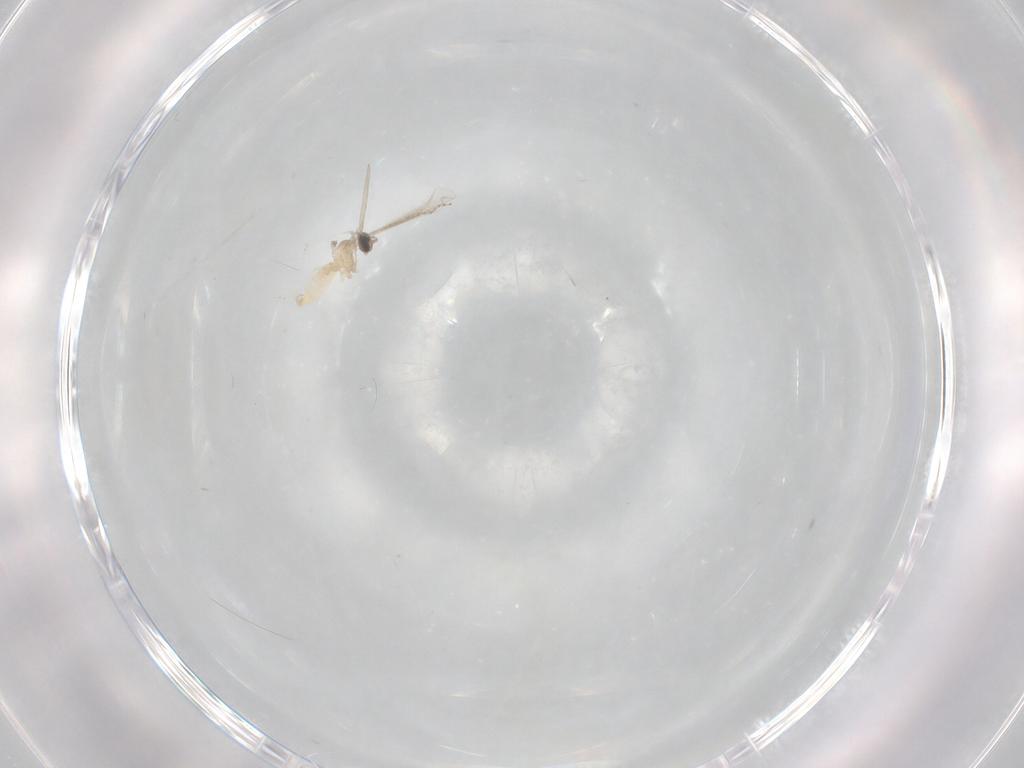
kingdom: Animalia
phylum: Arthropoda
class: Insecta
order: Diptera
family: Cecidomyiidae
